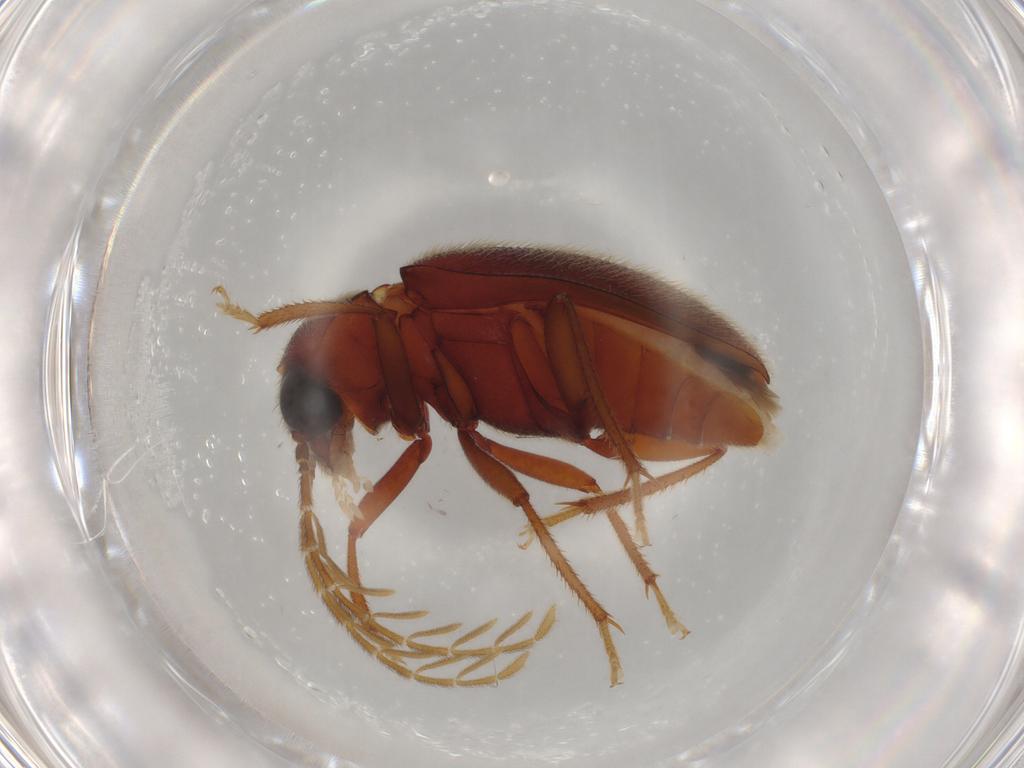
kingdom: Animalia
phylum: Arthropoda
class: Insecta
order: Coleoptera
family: Ptilodactylidae
